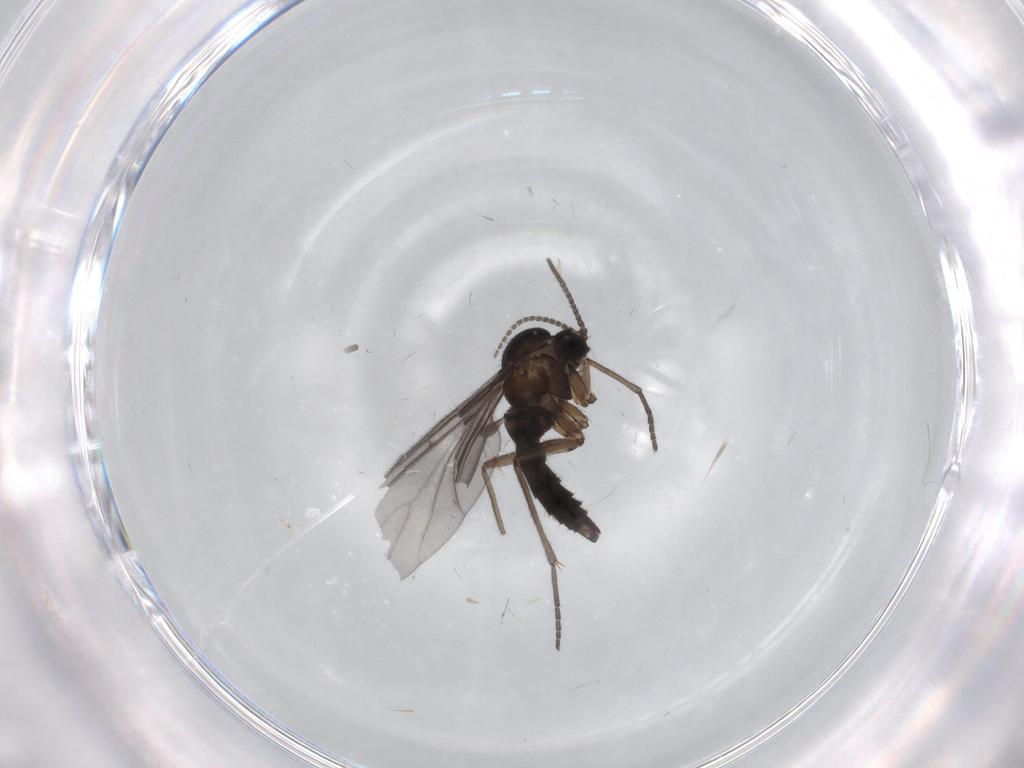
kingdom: Animalia
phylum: Arthropoda
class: Insecta
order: Diptera
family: Sciaridae
